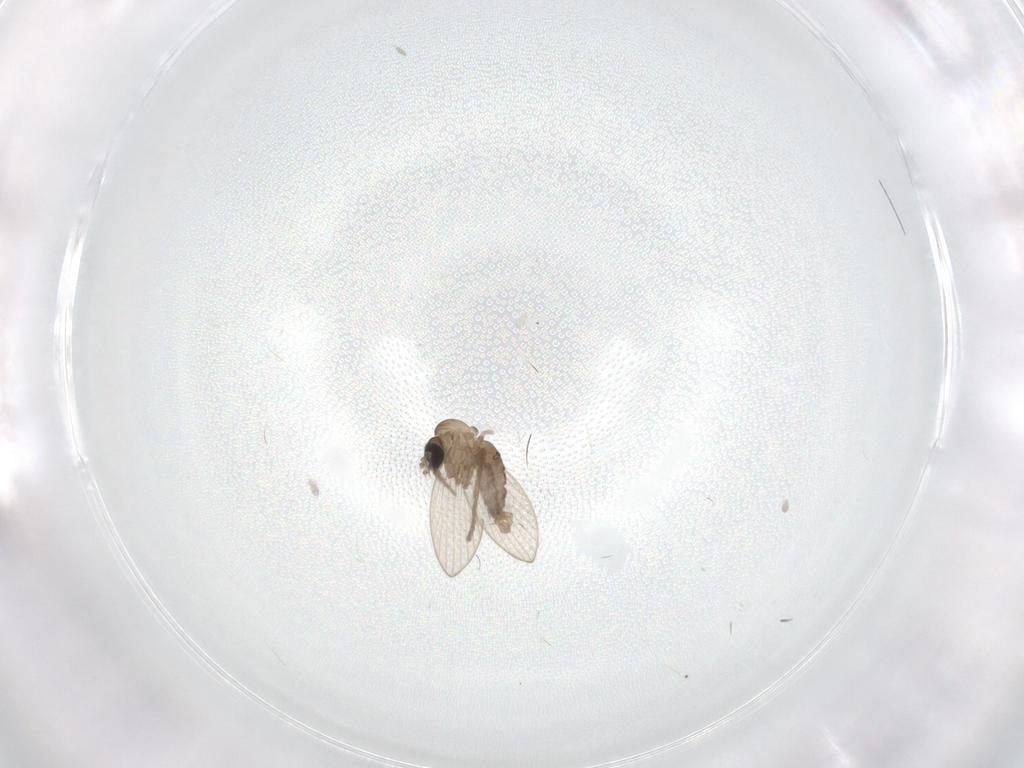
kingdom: Animalia
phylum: Arthropoda
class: Insecta
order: Diptera
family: Psychodidae
